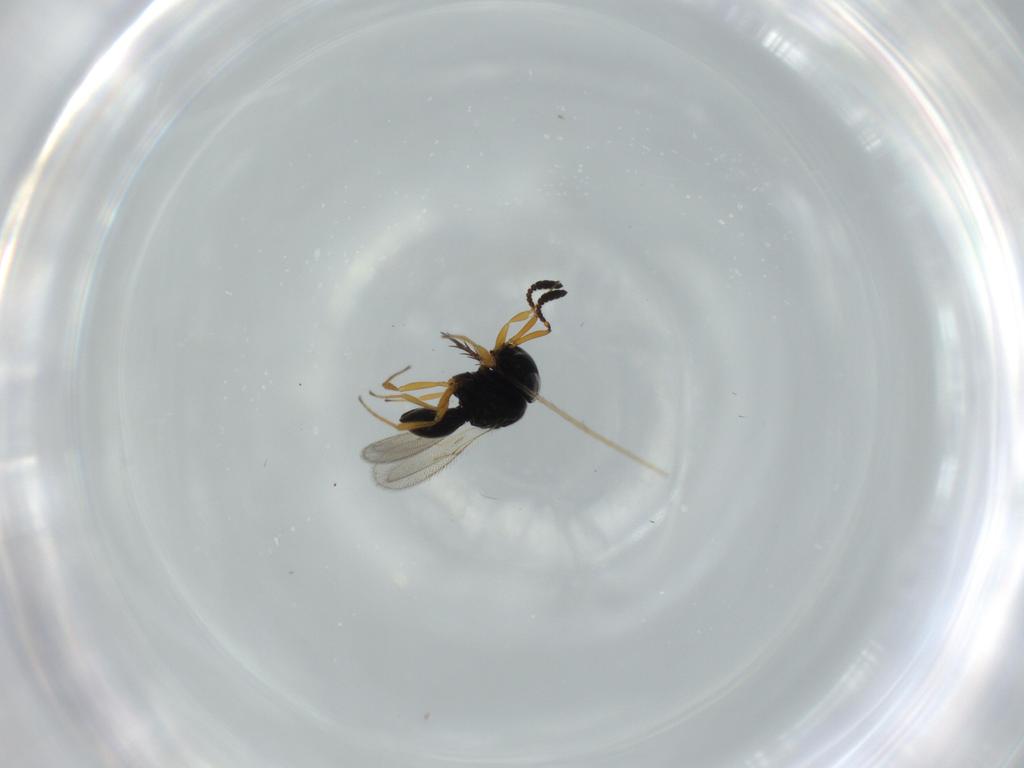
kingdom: Animalia
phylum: Arthropoda
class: Insecta
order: Hymenoptera
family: Scelionidae
